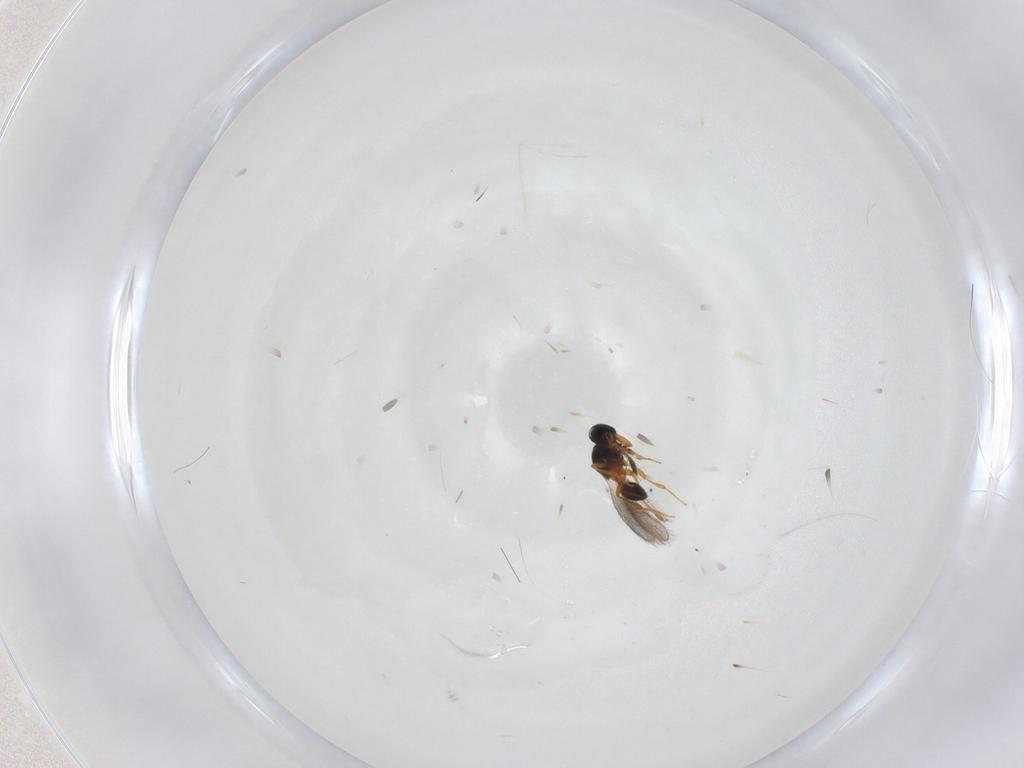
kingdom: Animalia
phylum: Arthropoda
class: Insecta
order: Hymenoptera
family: Platygastridae
